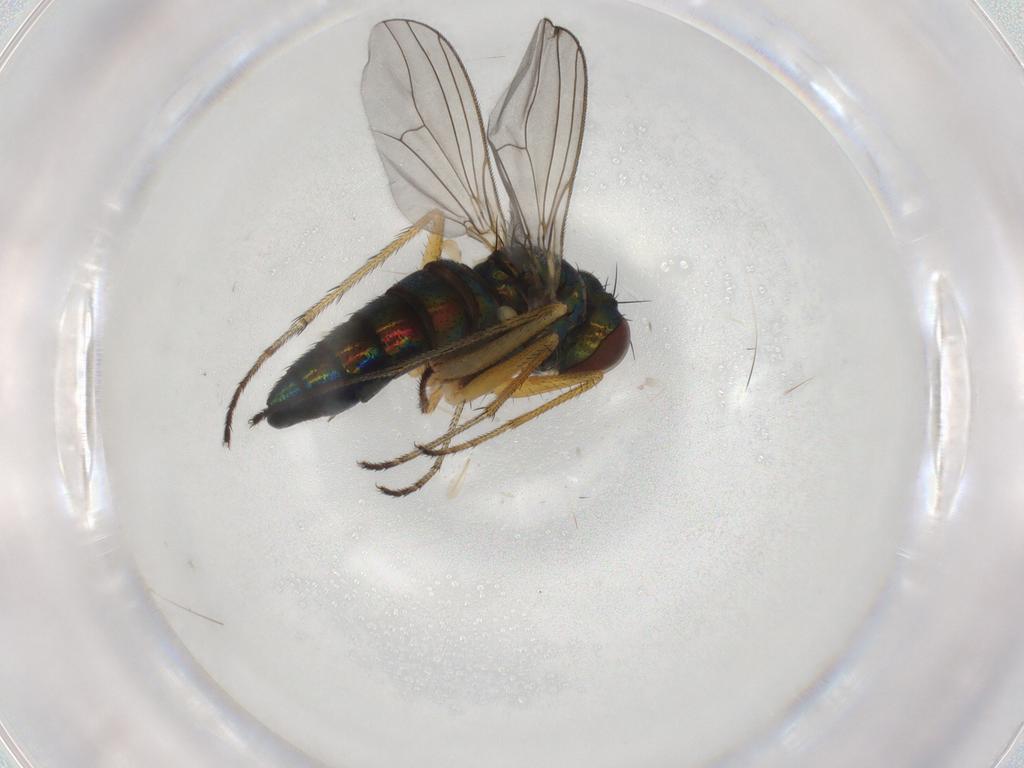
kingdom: Animalia
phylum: Arthropoda
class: Insecta
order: Diptera
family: Dolichopodidae
